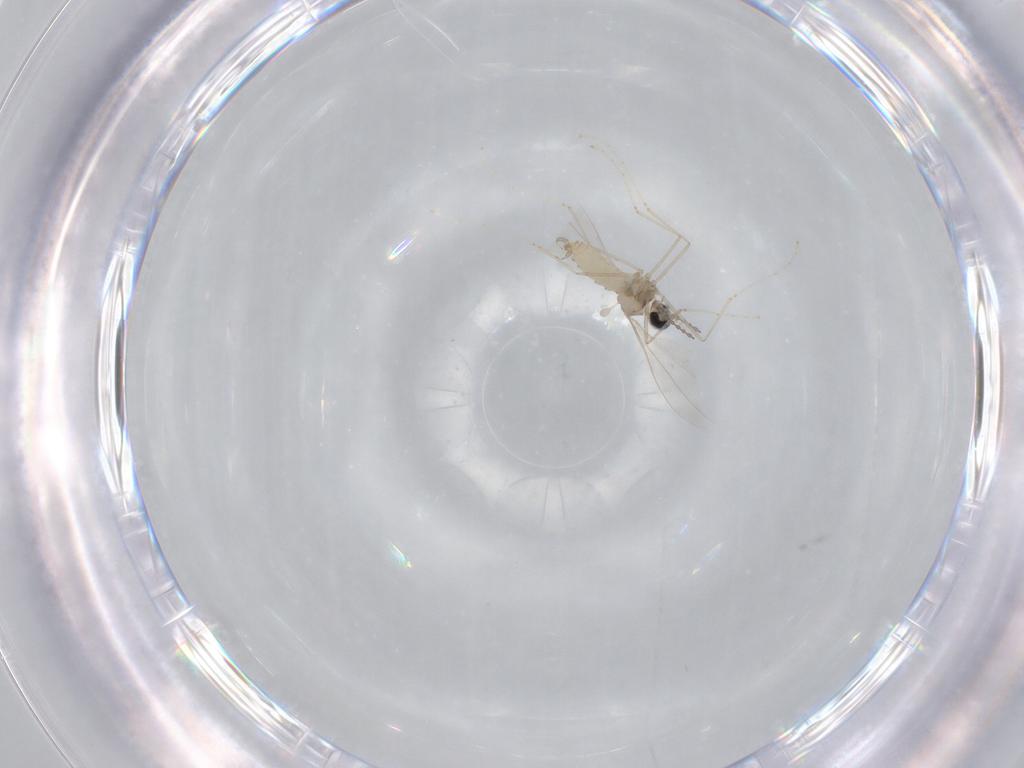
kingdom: Animalia
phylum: Arthropoda
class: Insecta
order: Diptera
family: Cecidomyiidae
